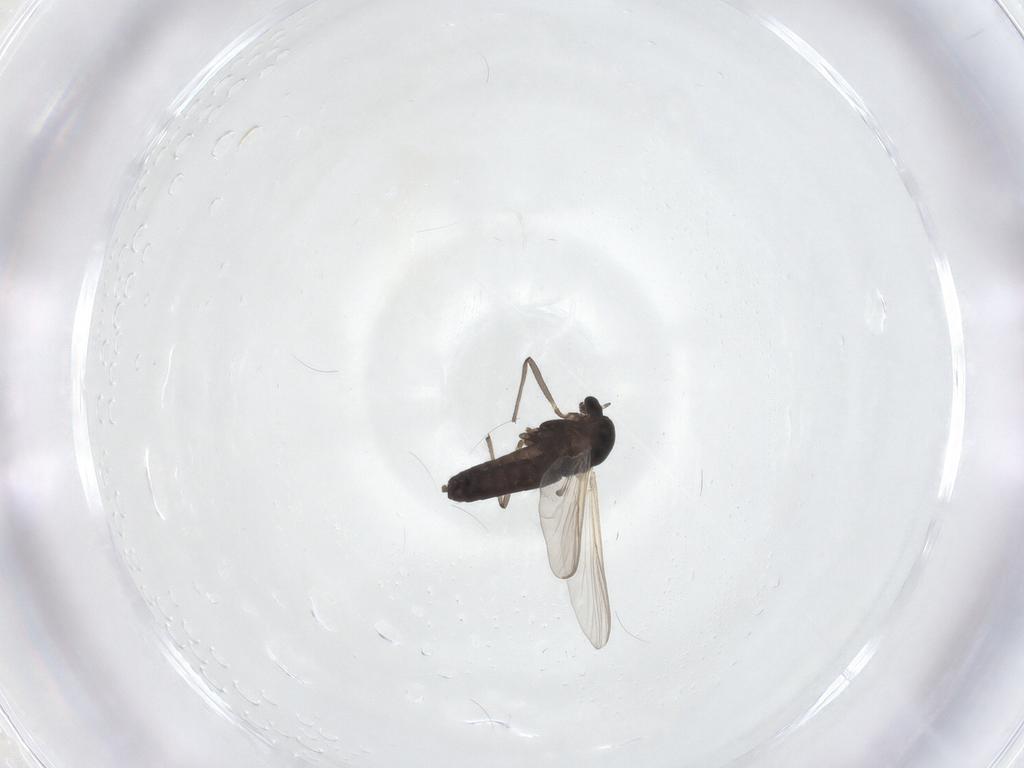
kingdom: Animalia
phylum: Arthropoda
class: Insecta
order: Diptera
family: Chironomidae
